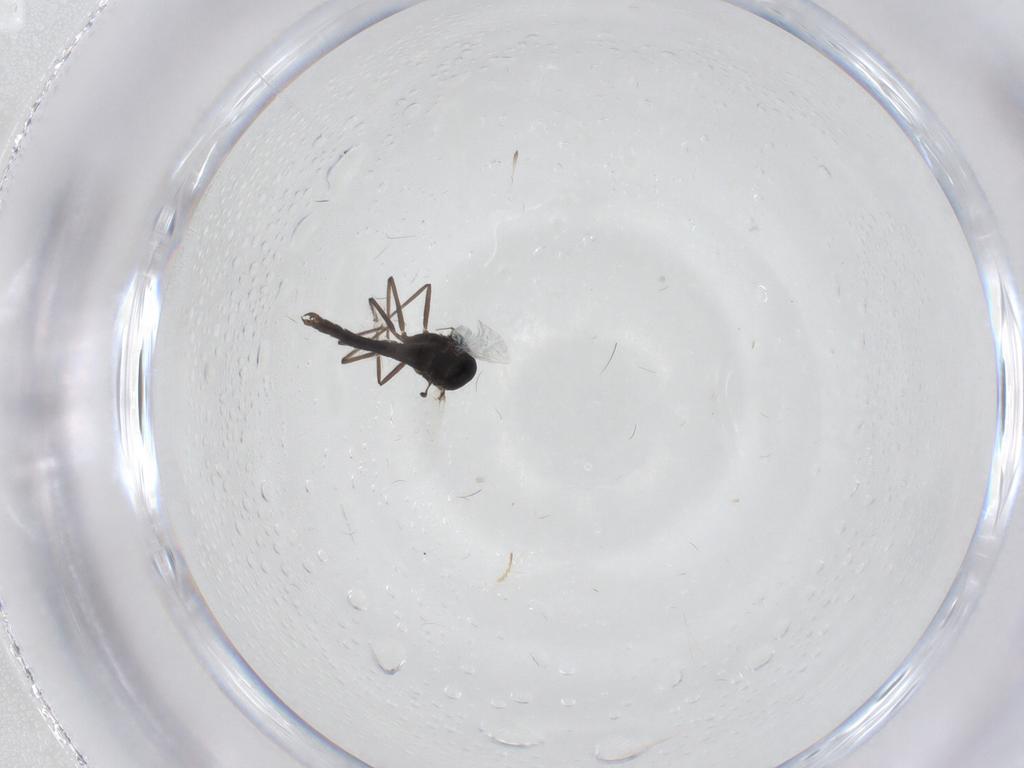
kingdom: Animalia
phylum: Arthropoda
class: Insecta
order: Diptera
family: Chironomidae
